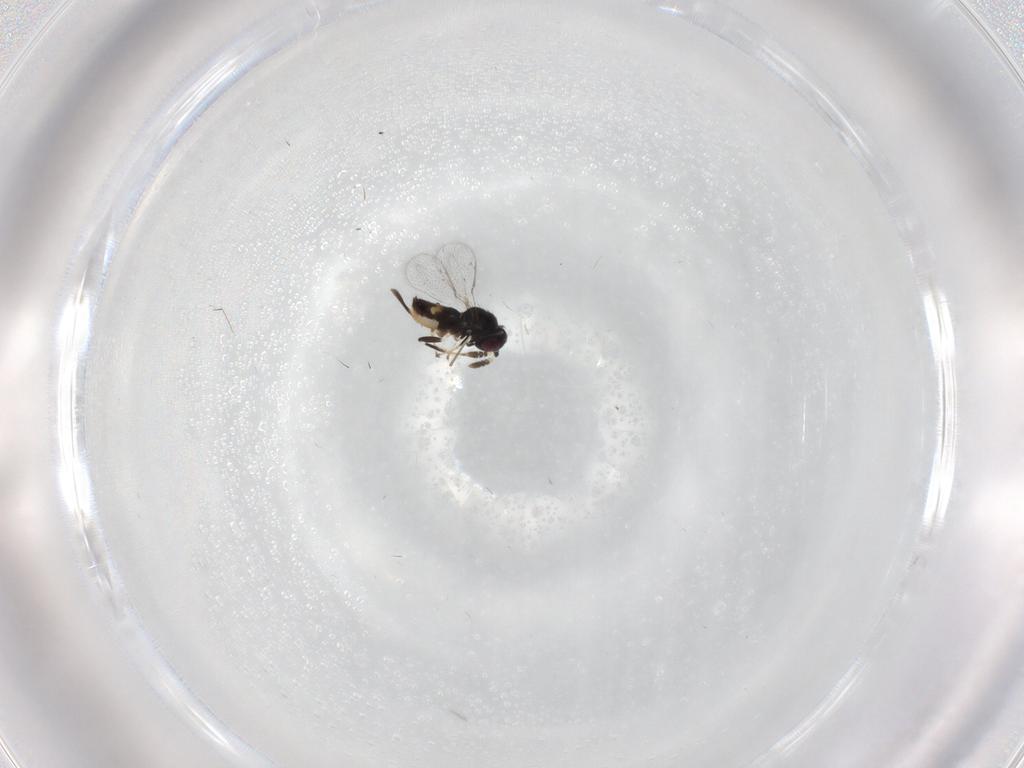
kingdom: Animalia
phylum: Arthropoda
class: Insecta
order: Hymenoptera
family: Pirenidae
